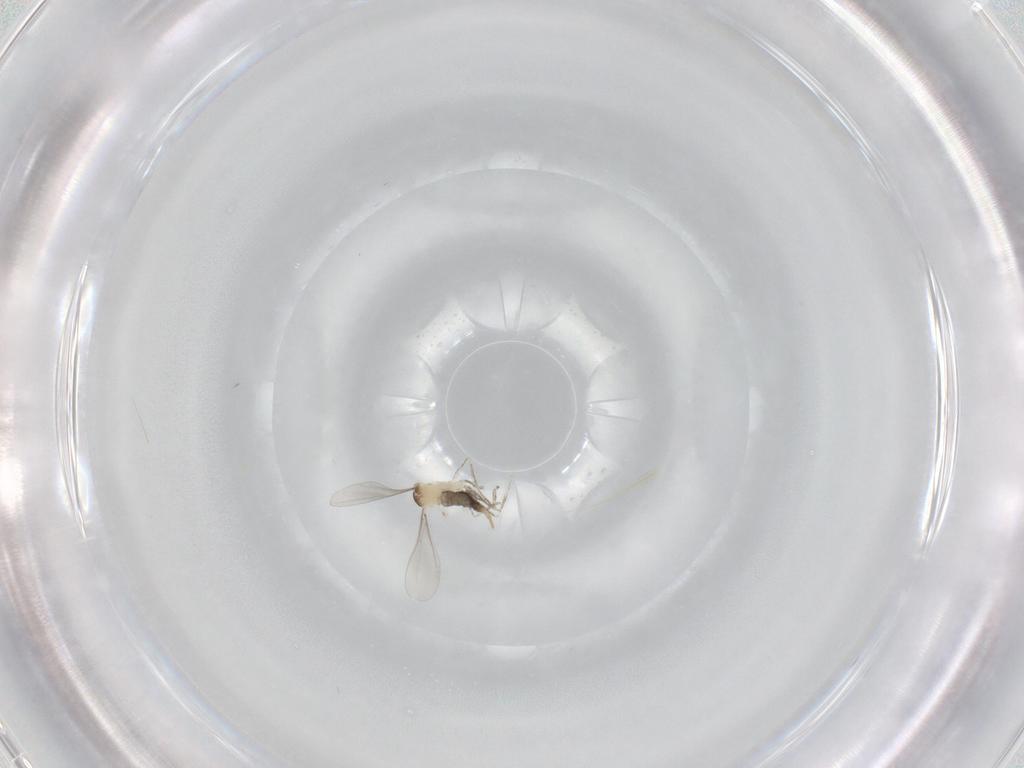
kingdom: Animalia
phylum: Arthropoda
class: Insecta
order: Diptera
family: Cecidomyiidae
